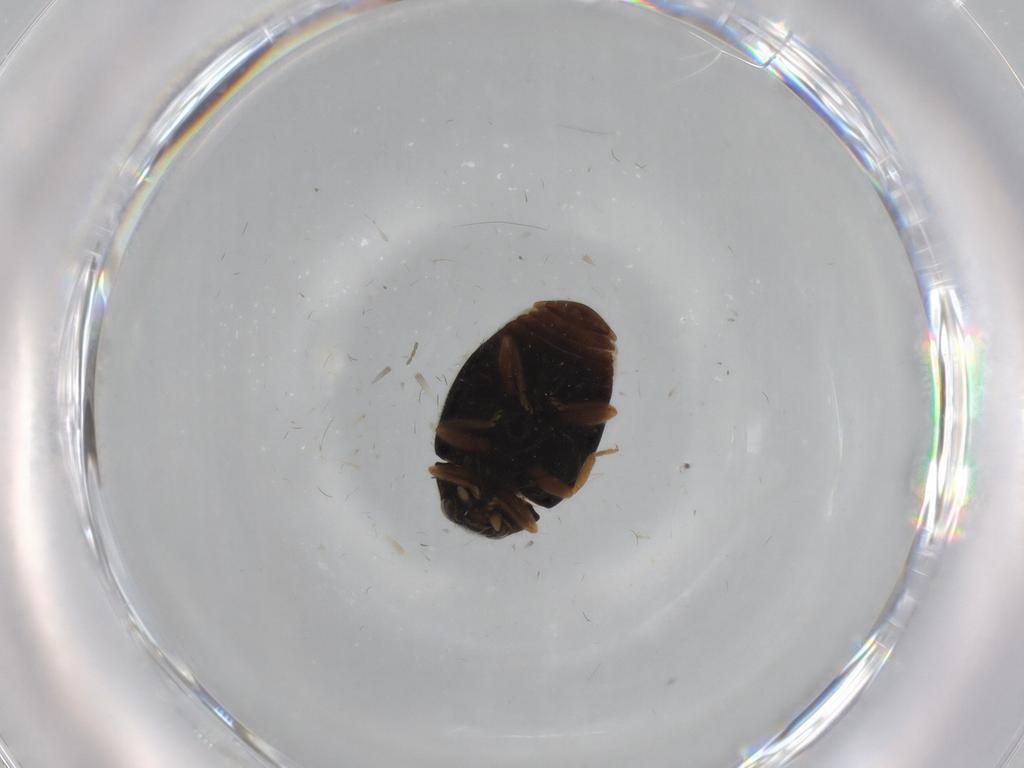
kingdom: Animalia
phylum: Arthropoda
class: Insecta
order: Coleoptera
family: Coccinellidae
